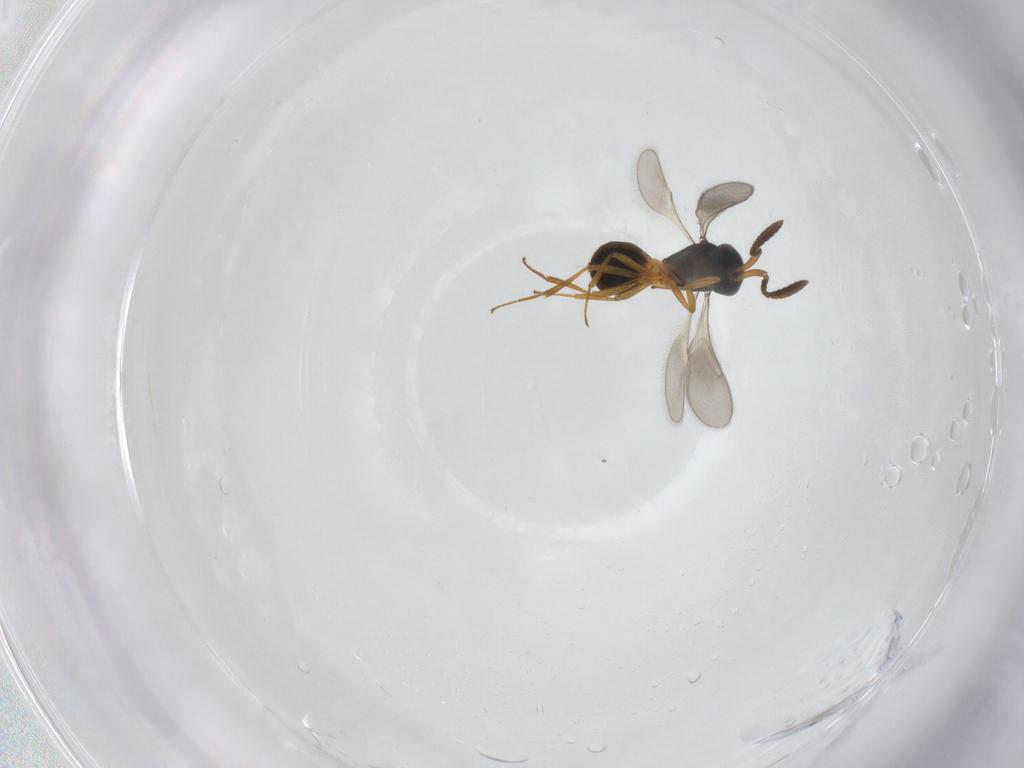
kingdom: Animalia
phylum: Arthropoda
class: Insecta
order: Hymenoptera
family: Scelionidae
